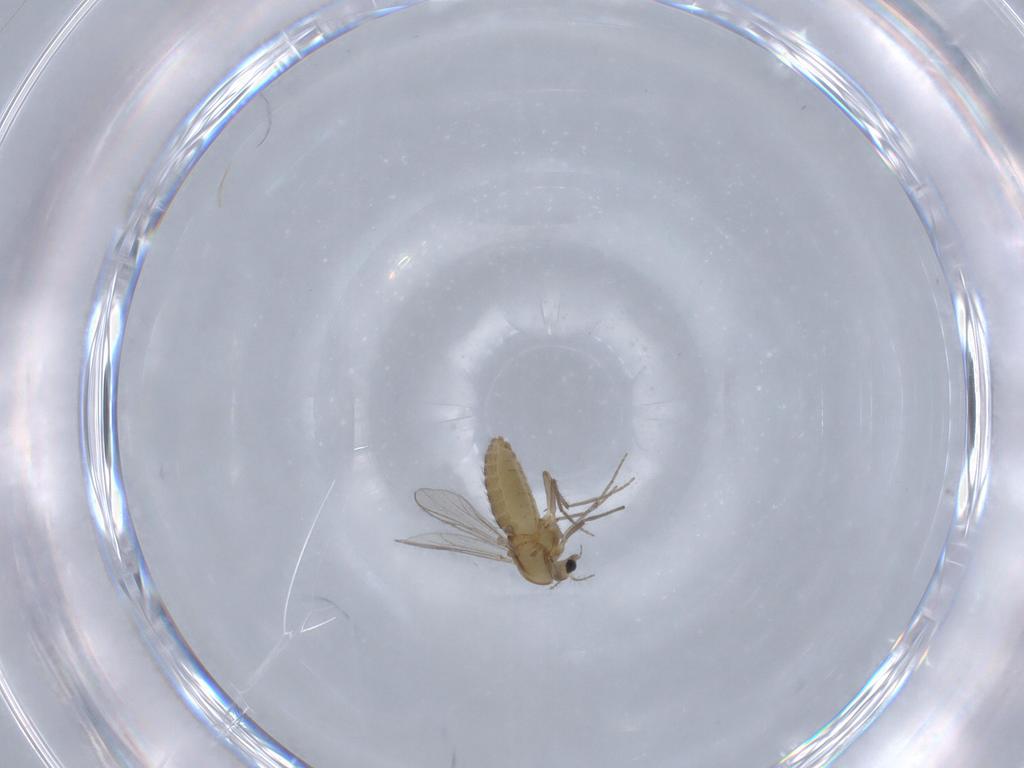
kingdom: Animalia
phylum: Arthropoda
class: Insecta
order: Diptera
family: Chironomidae
